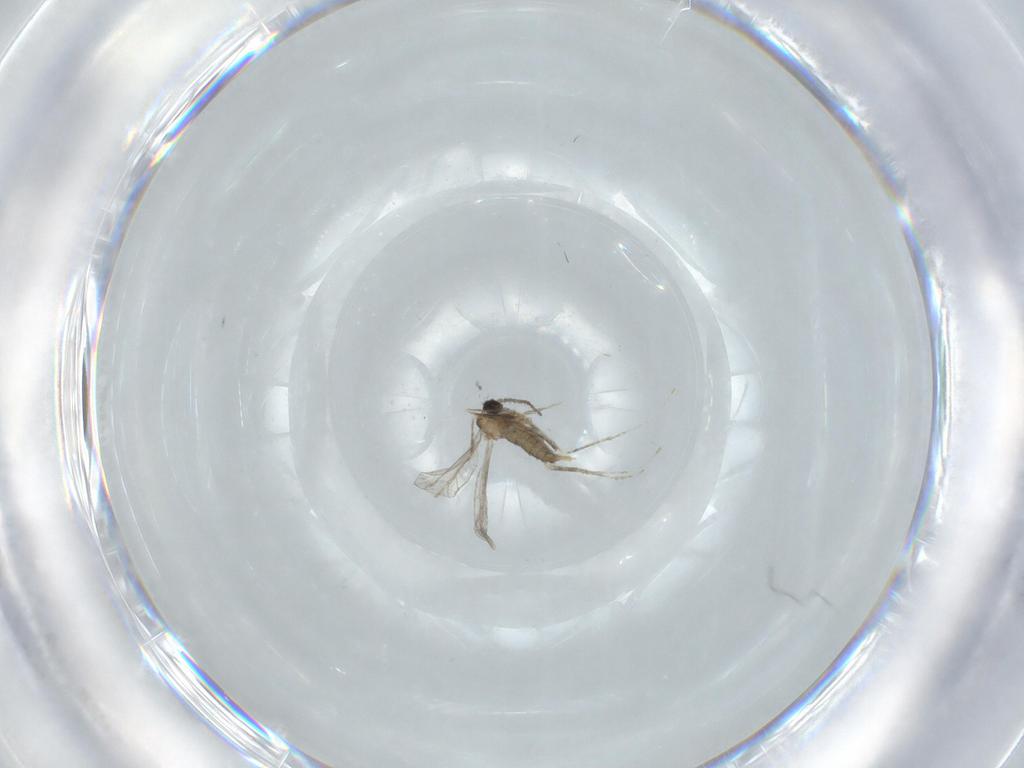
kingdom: Animalia
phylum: Arthropoda
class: Insecta
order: Diptera
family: Cecidomyiidae
